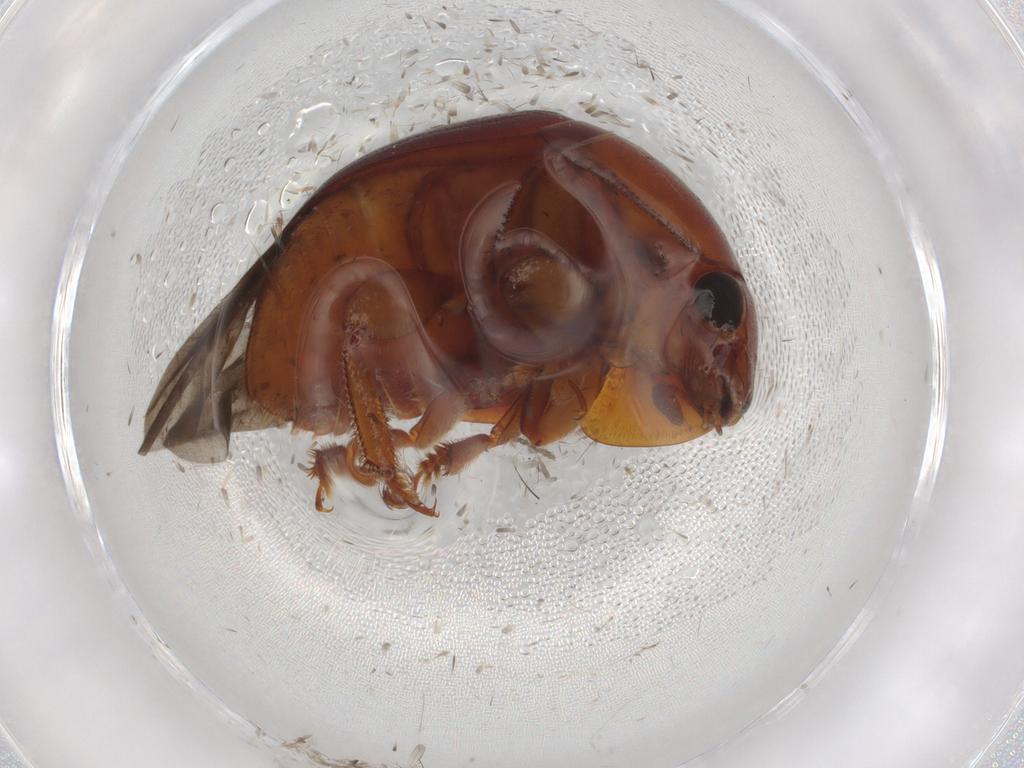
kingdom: Animalia
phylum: Arthropoda
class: Insecta
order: Coleoptera
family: Nitidulidae
